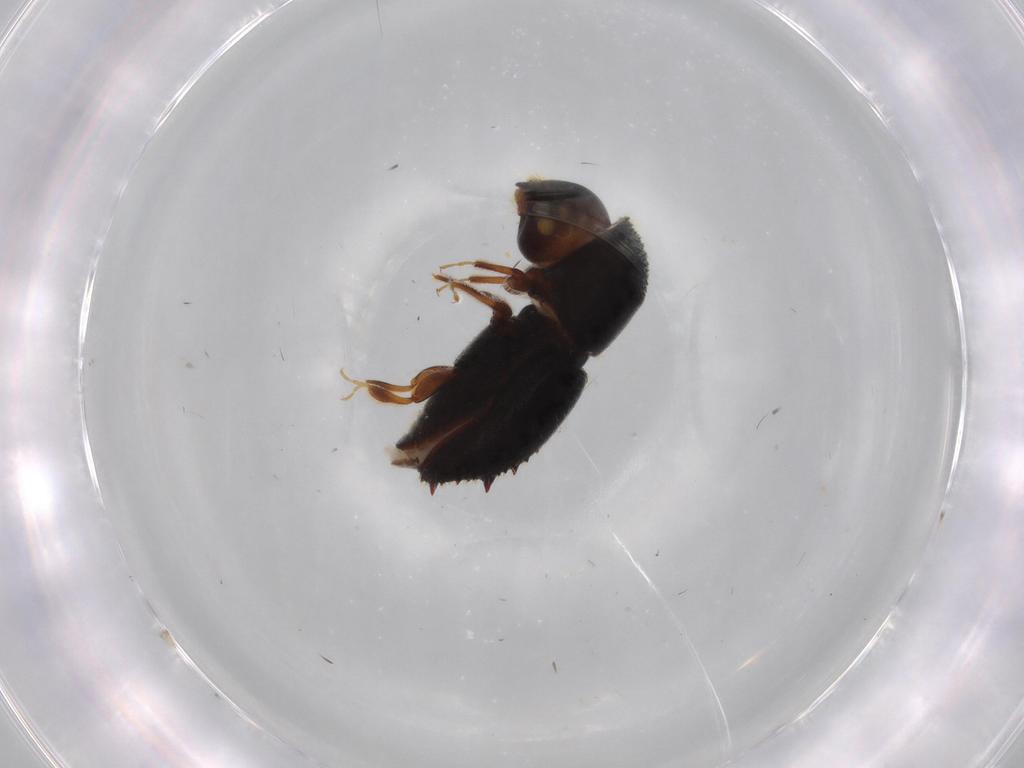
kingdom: Animalia
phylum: Arthropoda
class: Insecta
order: Coleoptera
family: Curculionidae
